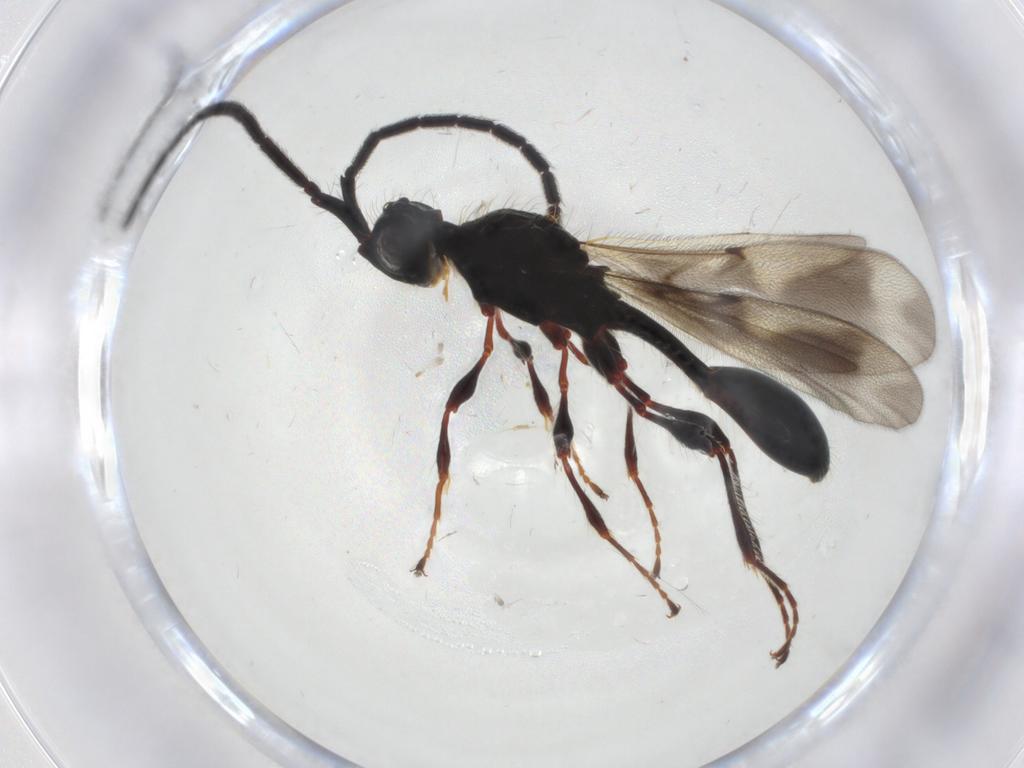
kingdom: Animalia
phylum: Arthropoda
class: Insecta
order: Hymenoptera
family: Diapriidae
